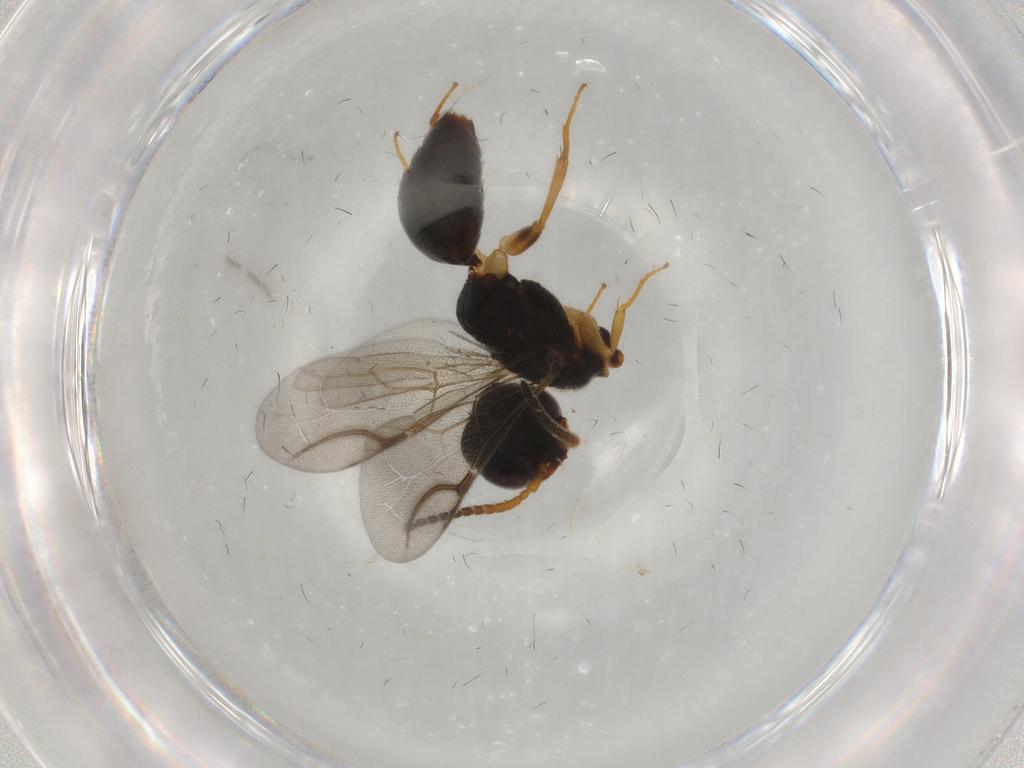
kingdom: Animalia
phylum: Arthropoda
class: Insecta
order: Hymenoptera
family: Bethylidae
